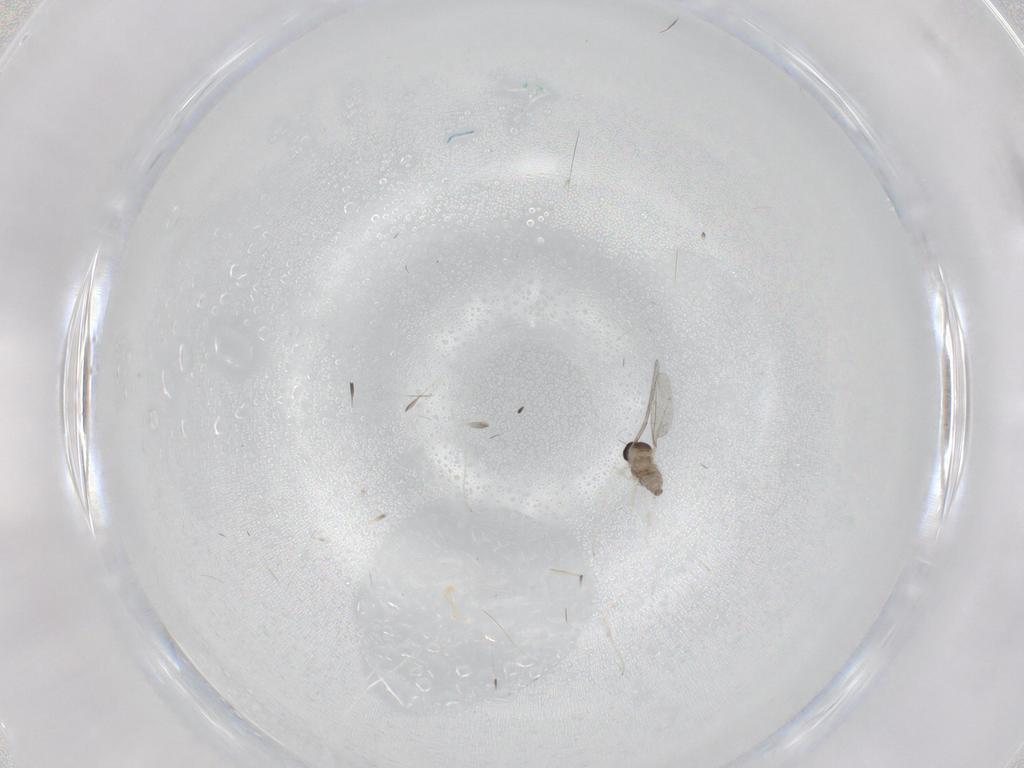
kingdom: Animalia
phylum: Arthropoda
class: Insecta
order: Diptera
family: Cecidomyiidae
